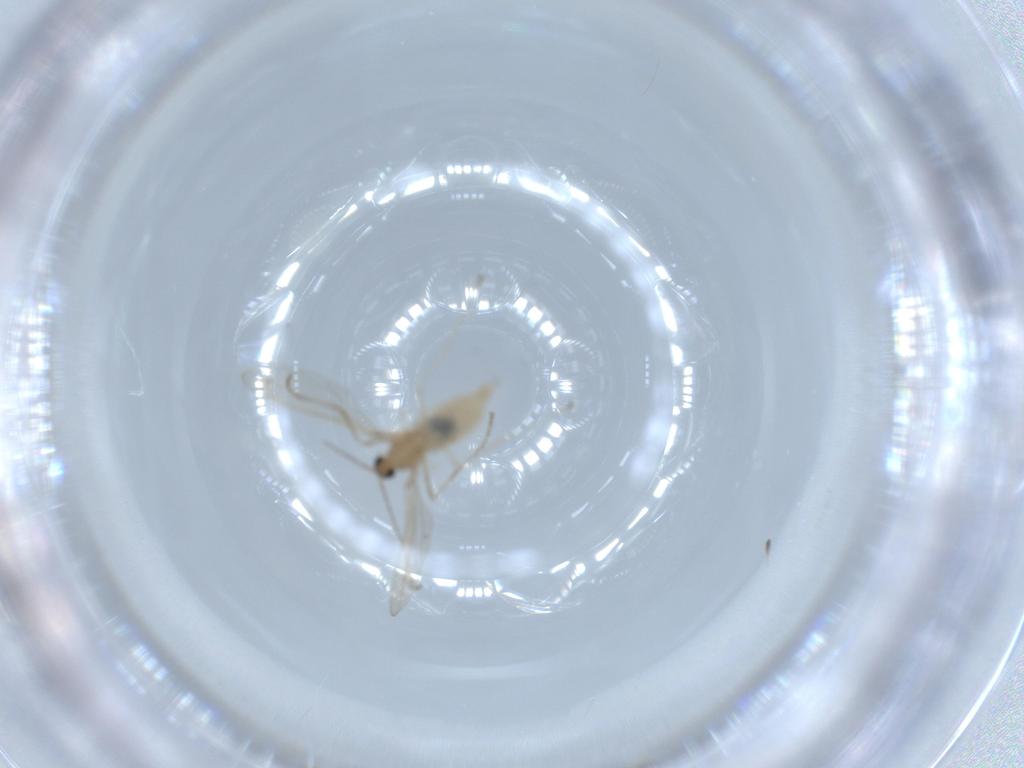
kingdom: Animalia
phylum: Arthropoda
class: Insecta
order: Diptera
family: Cecidomyiidae
